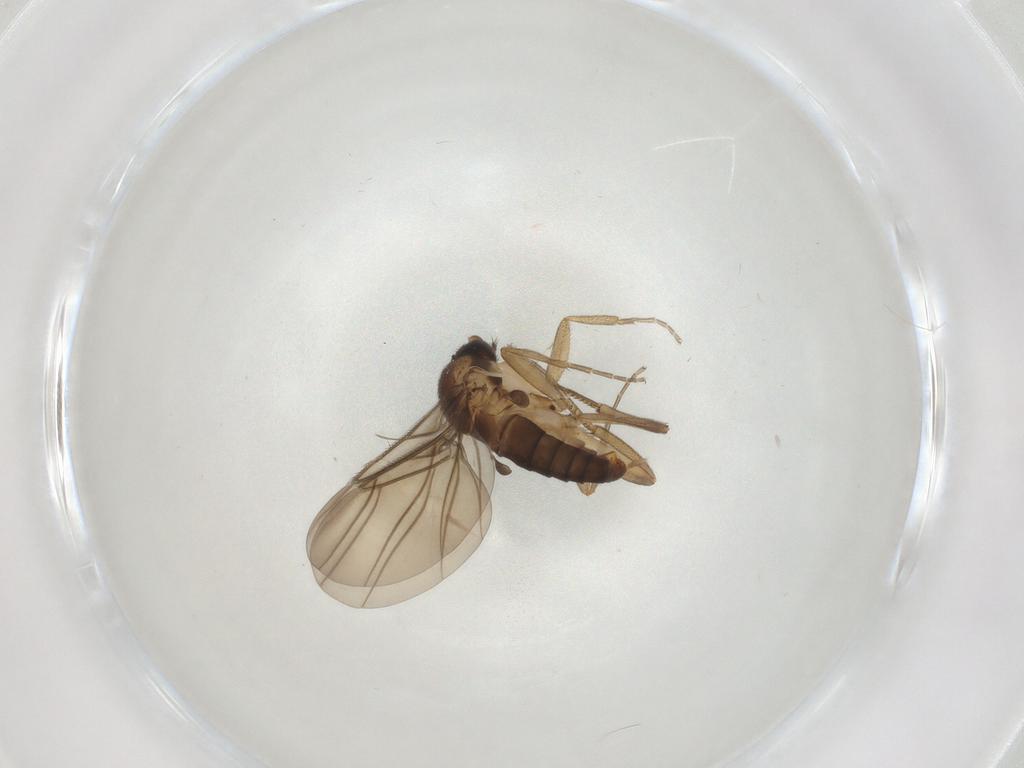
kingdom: Animalia
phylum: Arthropoda
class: Insecta
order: Diptera
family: Phoridae
